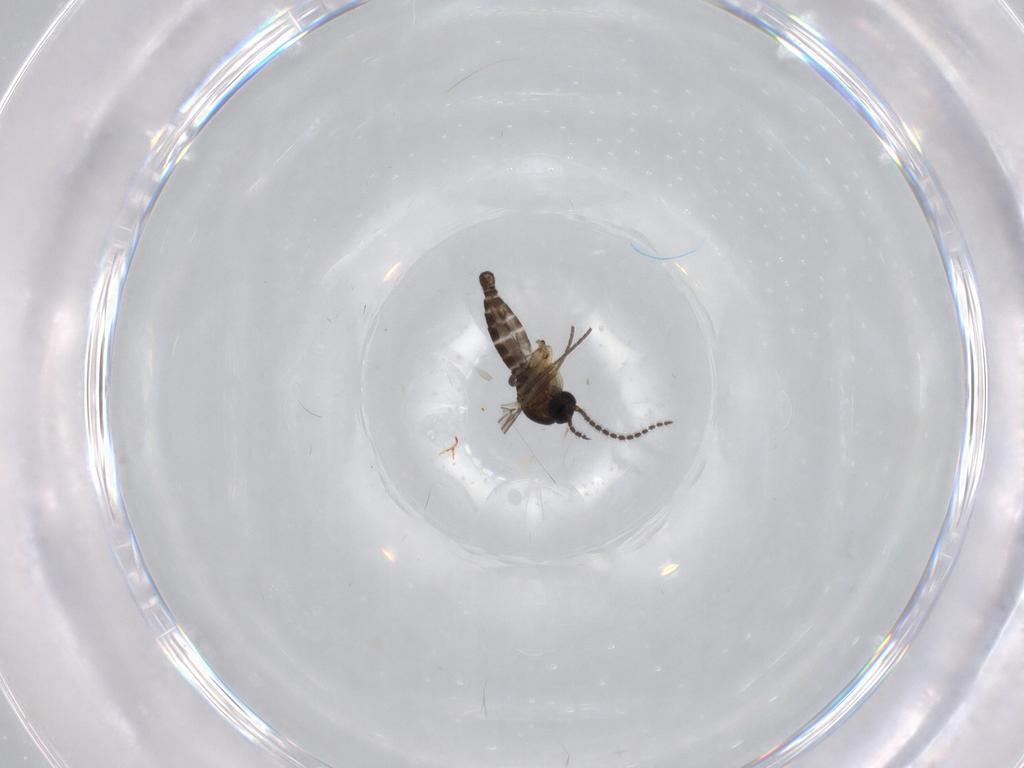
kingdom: Animalia
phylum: Arthropoda
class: Insecta
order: Diptera
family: Sciaridae
